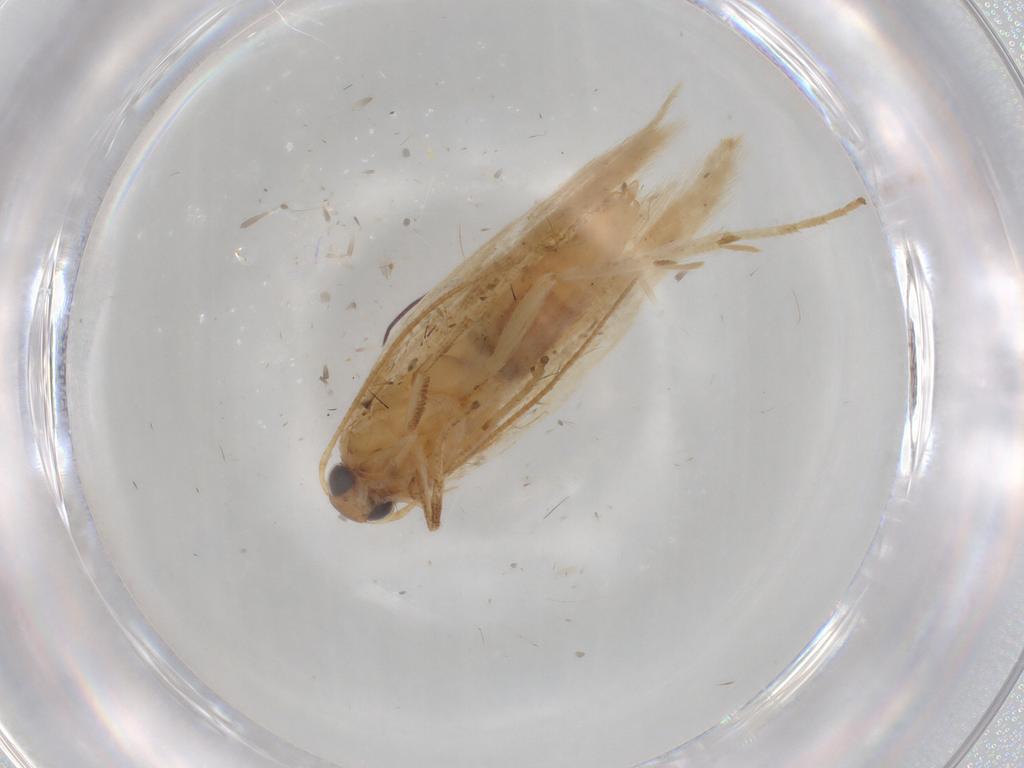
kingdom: Animalia
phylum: Arthropoda
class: Insecta
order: Lepidoptera
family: Gelechiidae
